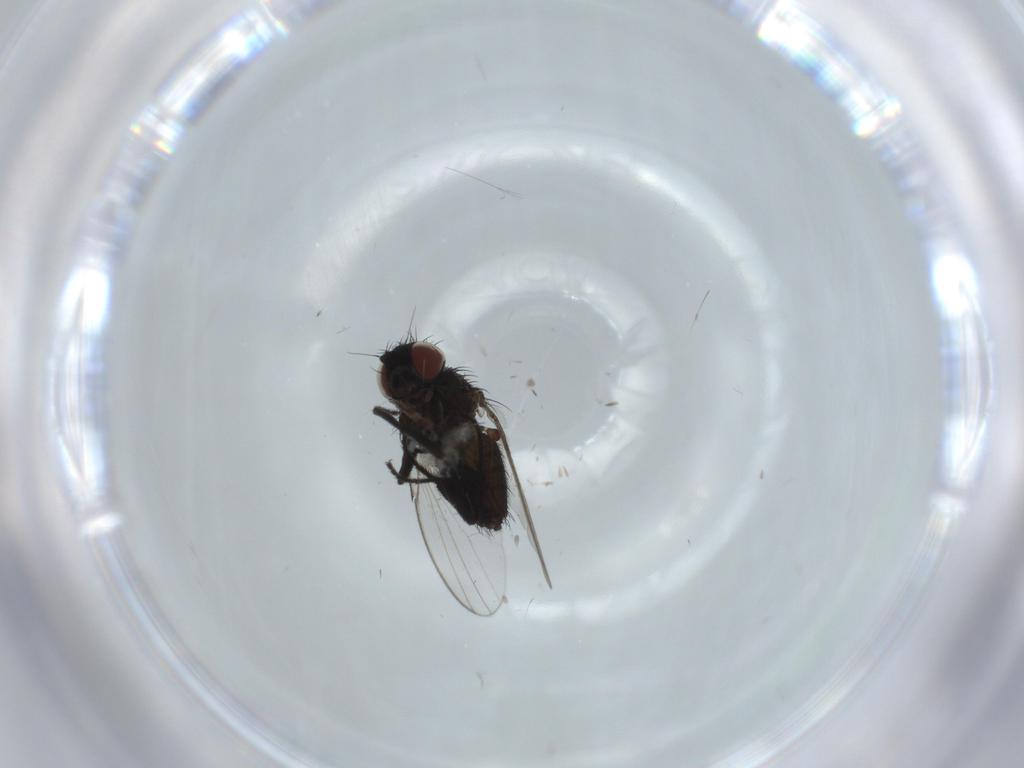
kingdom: Animalia
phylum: Arthropoda
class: Insecta
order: Diptera
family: Milichiidae
